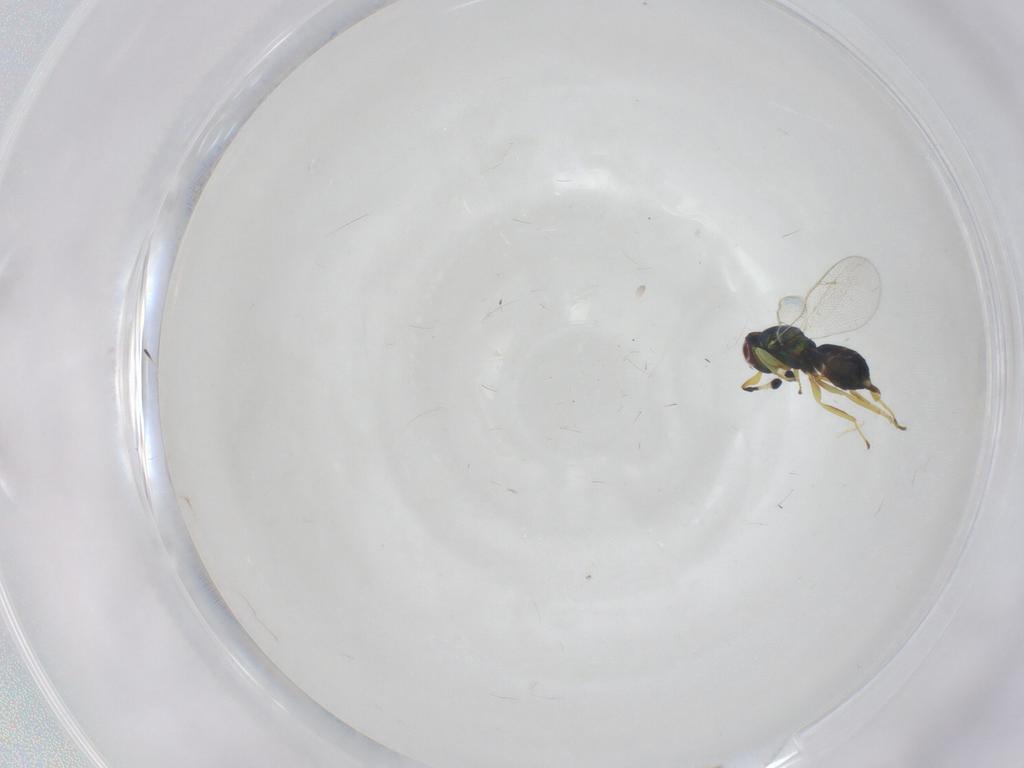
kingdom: Animalia
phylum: Arthropoda
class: Insecta
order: Hymenoptera
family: Pteromalidae
